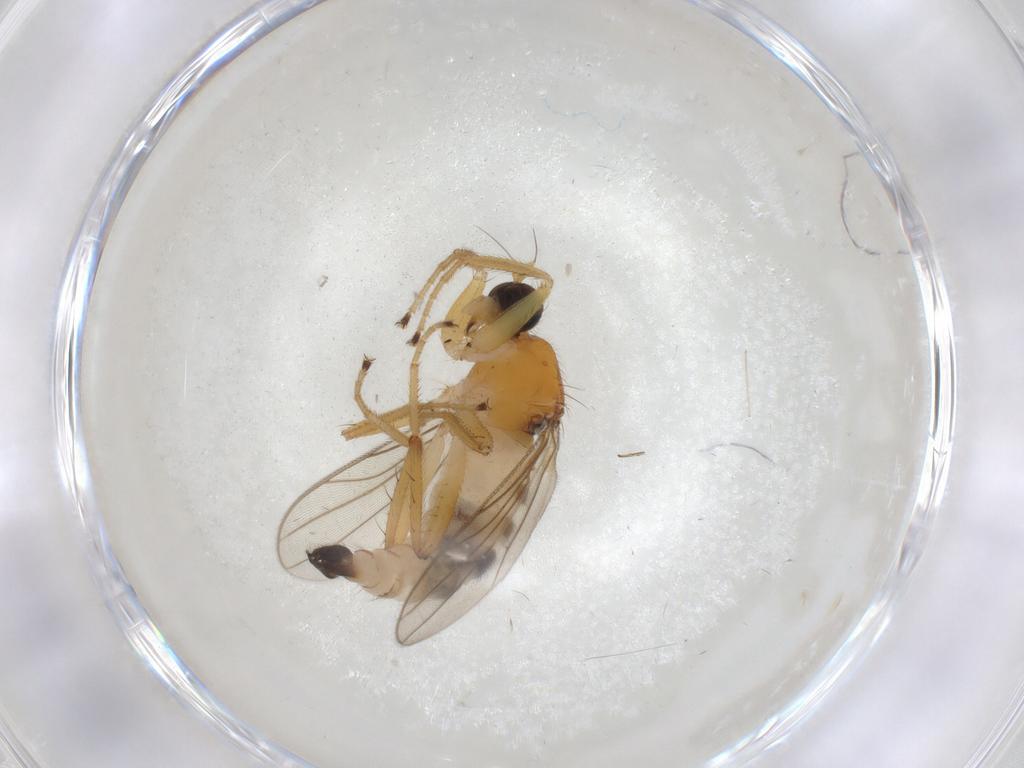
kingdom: Animalia
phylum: Arthropoda
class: Insecta
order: Diptera
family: Hybotidae
